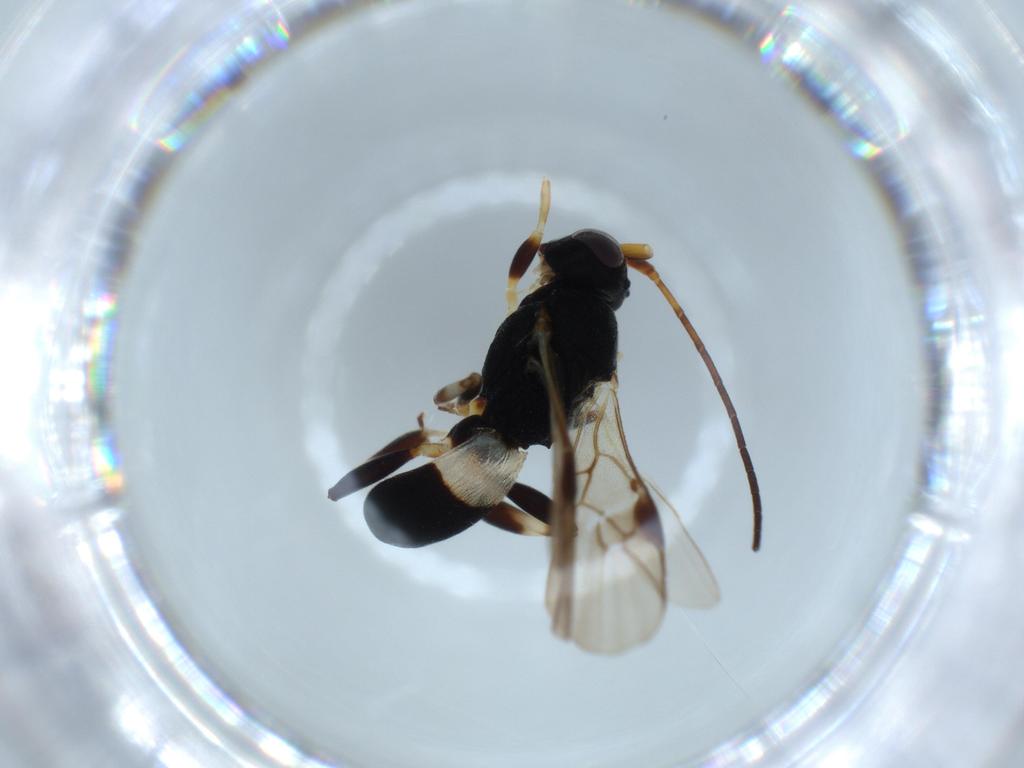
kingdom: Animalia
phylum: Arthropoda
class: Insecta
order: Hymenoptera
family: Braconidae
